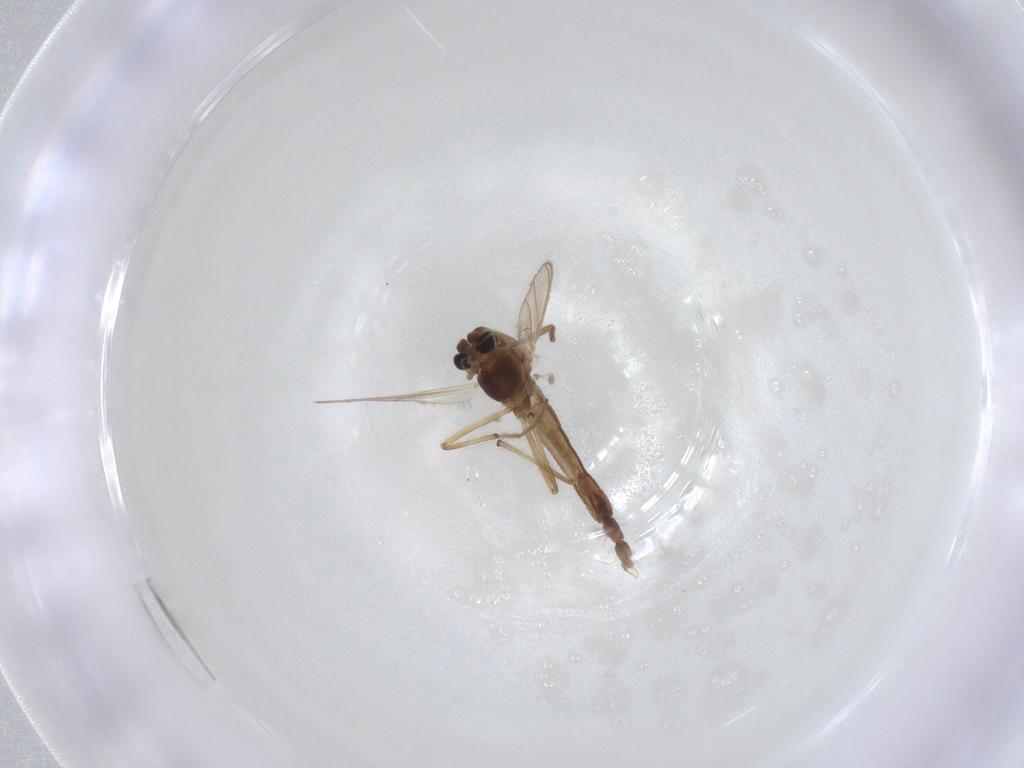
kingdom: Animalia
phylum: Arthropoda
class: Insecta
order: Diptera
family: Chironomidae
